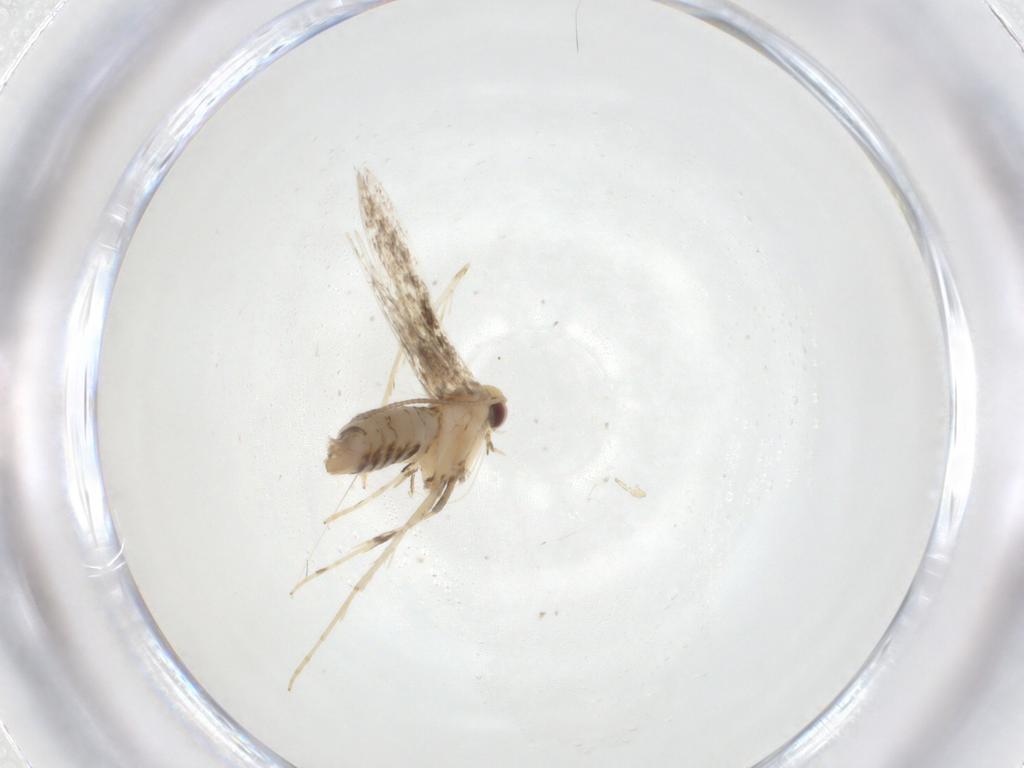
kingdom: Animalia
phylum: Arthropoda
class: Insecta
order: Lepidoptera
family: Gracillariidae
